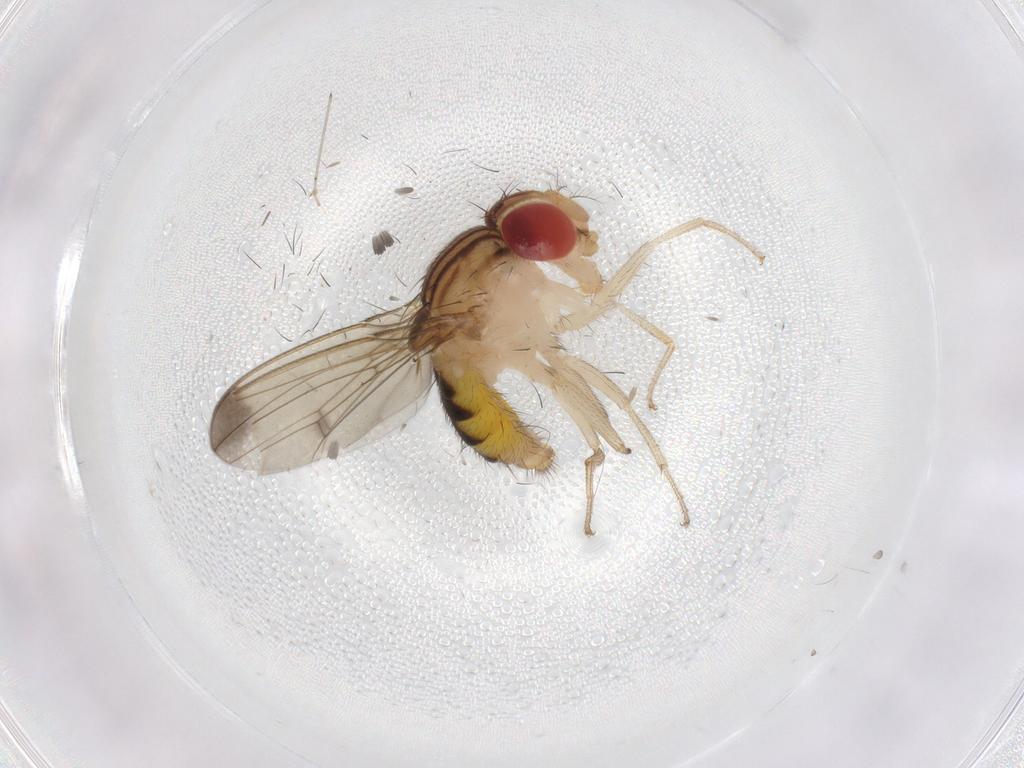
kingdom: Animalia
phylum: Arthropoda
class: Insecta
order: Diptera
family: Drosophilidae
